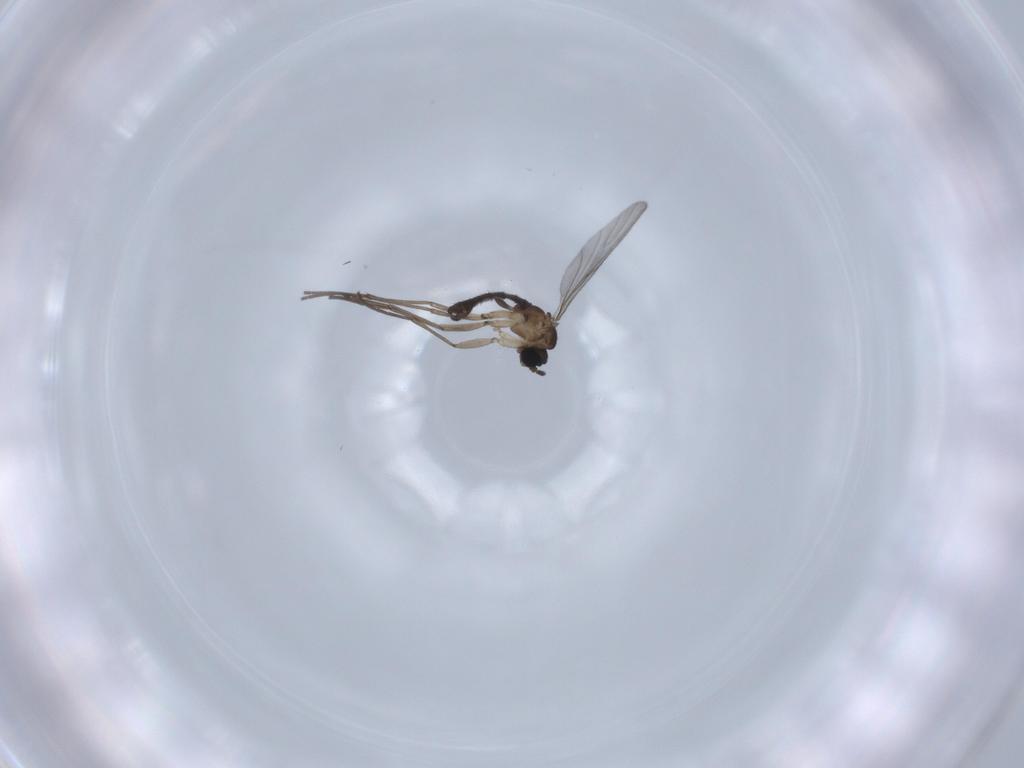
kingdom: Animalia
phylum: Arthropoda
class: Insecta
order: Diptera
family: Sciaridae
